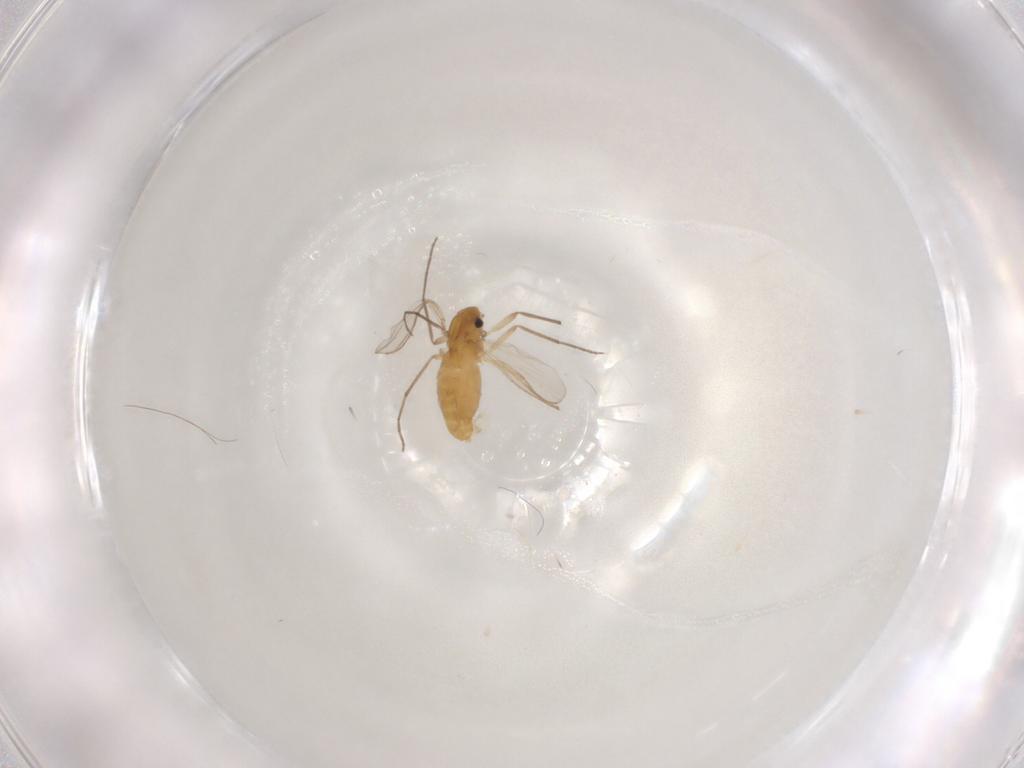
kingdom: Animalia
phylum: Arthropoda
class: Insecta
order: Diptera
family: Chironomidae
